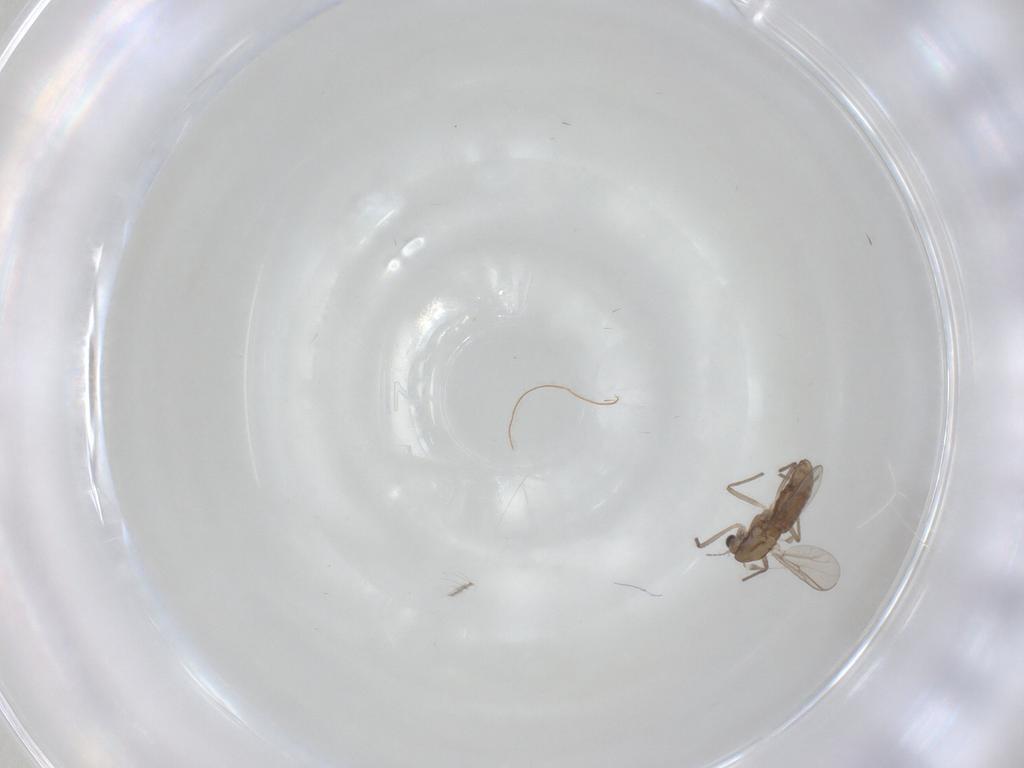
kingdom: Animalia
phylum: Arthropoda
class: Insecta
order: Diptera
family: Chironomidae
